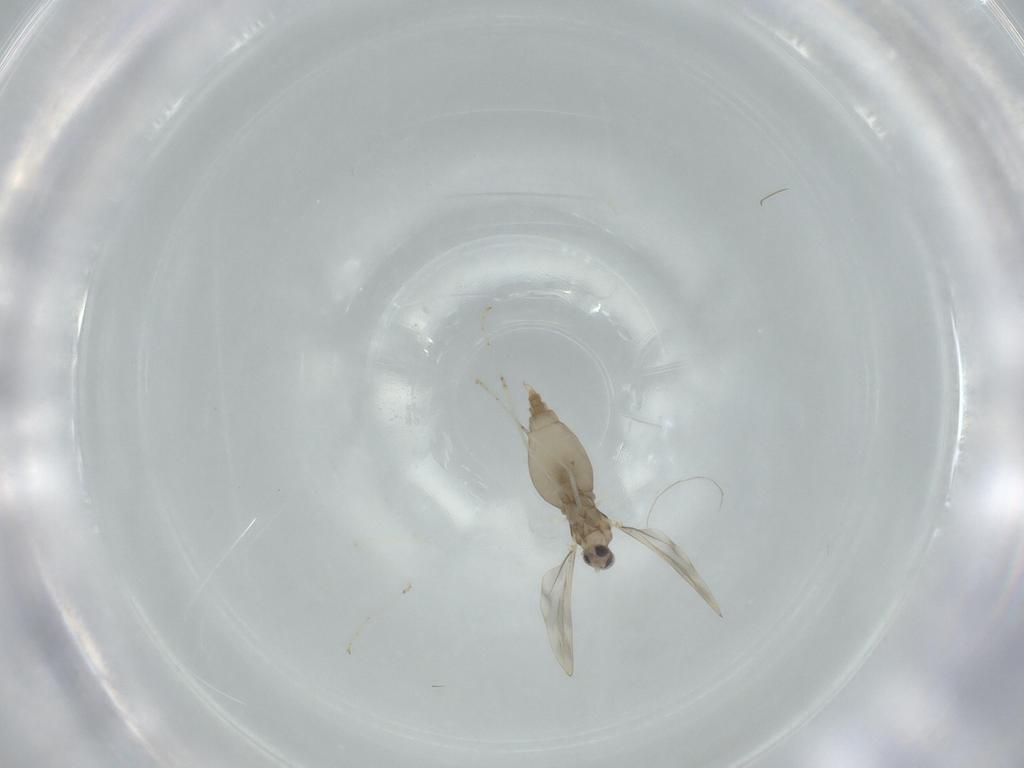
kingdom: Animalia
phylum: Arthropoda
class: Insecta
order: Diptera
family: Cecidomyiidae
